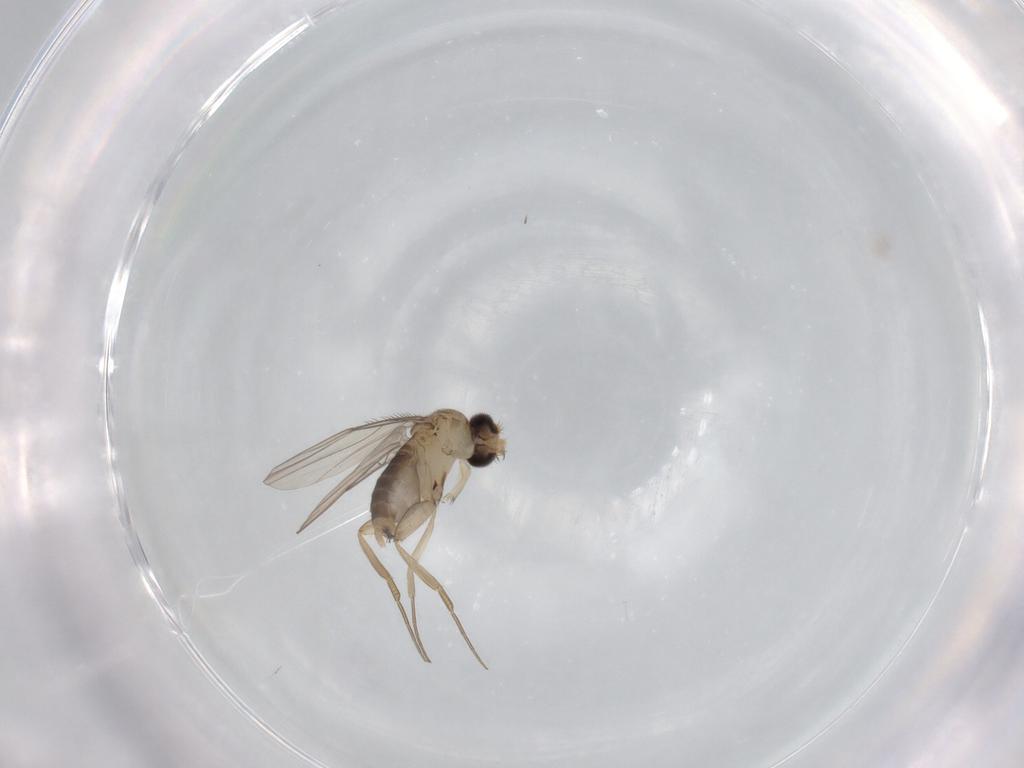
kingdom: Animalia
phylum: Arthropoda
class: Insecta
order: Diptera
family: Phoridae
